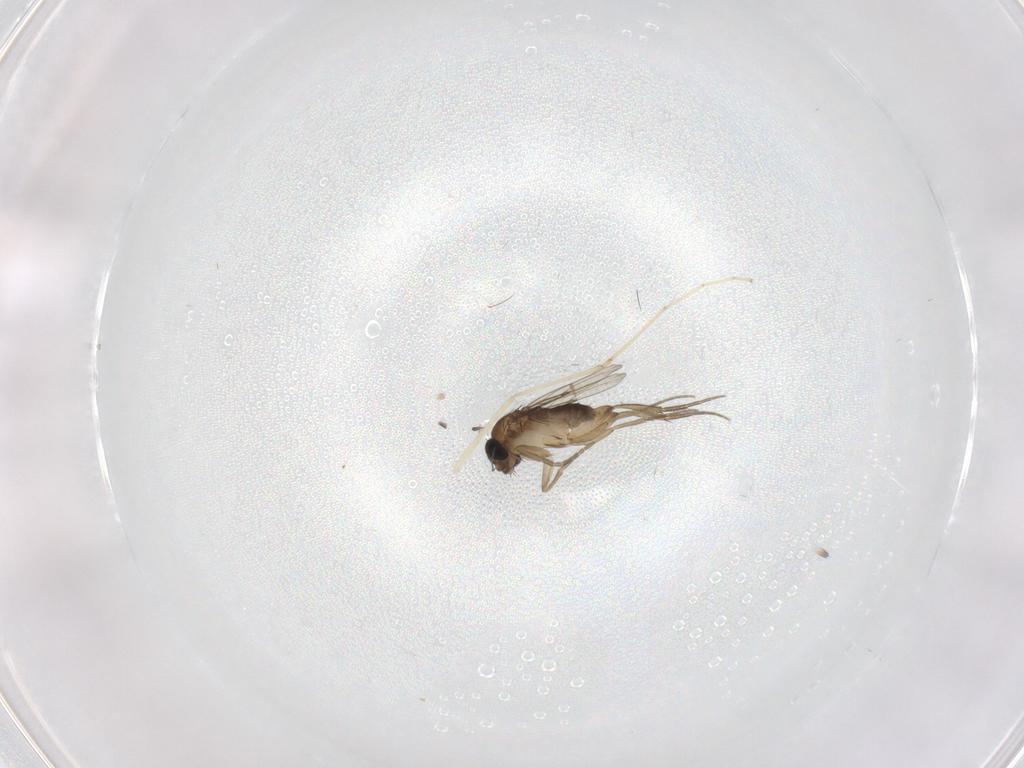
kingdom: Animalia
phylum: Arthropoda
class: Insecta
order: Diptera
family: Phoridae
